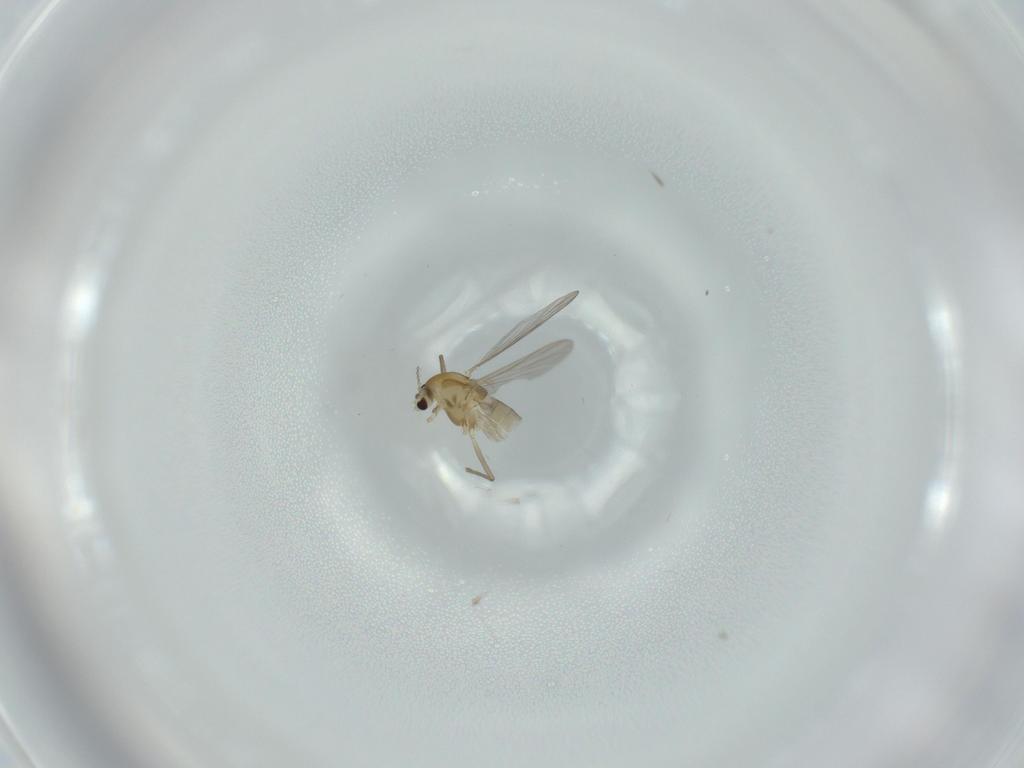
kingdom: Animalia
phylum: Arthropoda
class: Insecta
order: Diptera
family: Chironomidae
